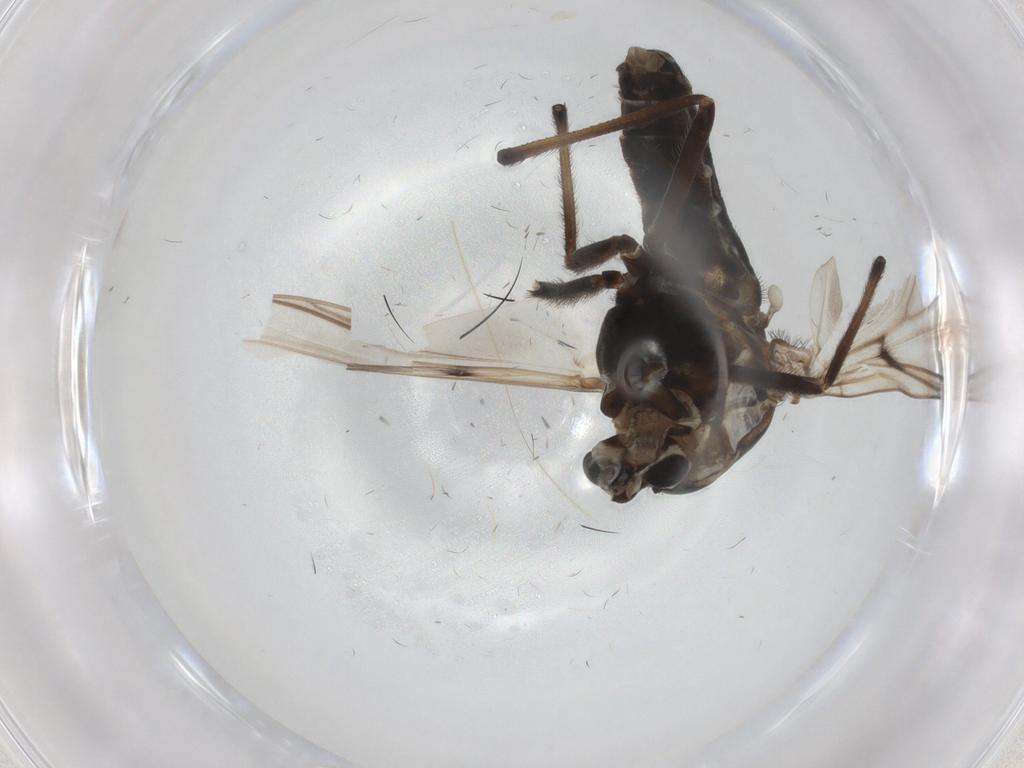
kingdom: Animalia
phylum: Arthropoda
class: Insecta
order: Diptera
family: Chironomidae
